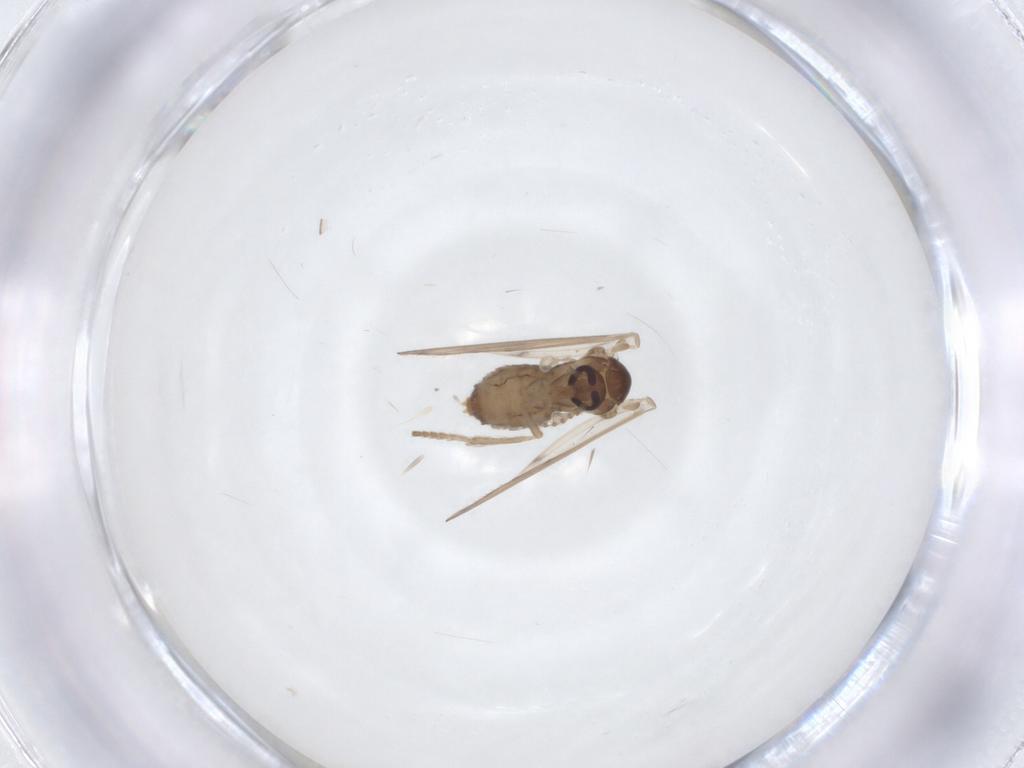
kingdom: Animalia
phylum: Arthropoda
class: Insecta
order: Diptera
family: Psychodidae
